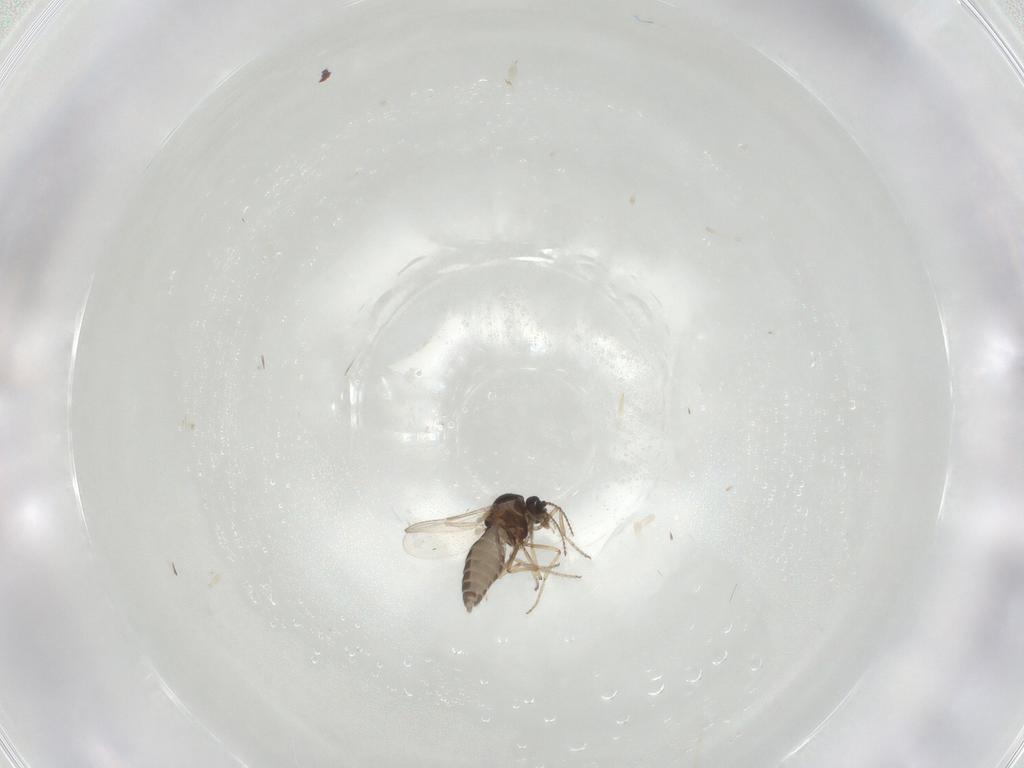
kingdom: Animalia
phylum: Arthropoda
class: Insecta
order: Diptera
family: Ceratopogonidae
